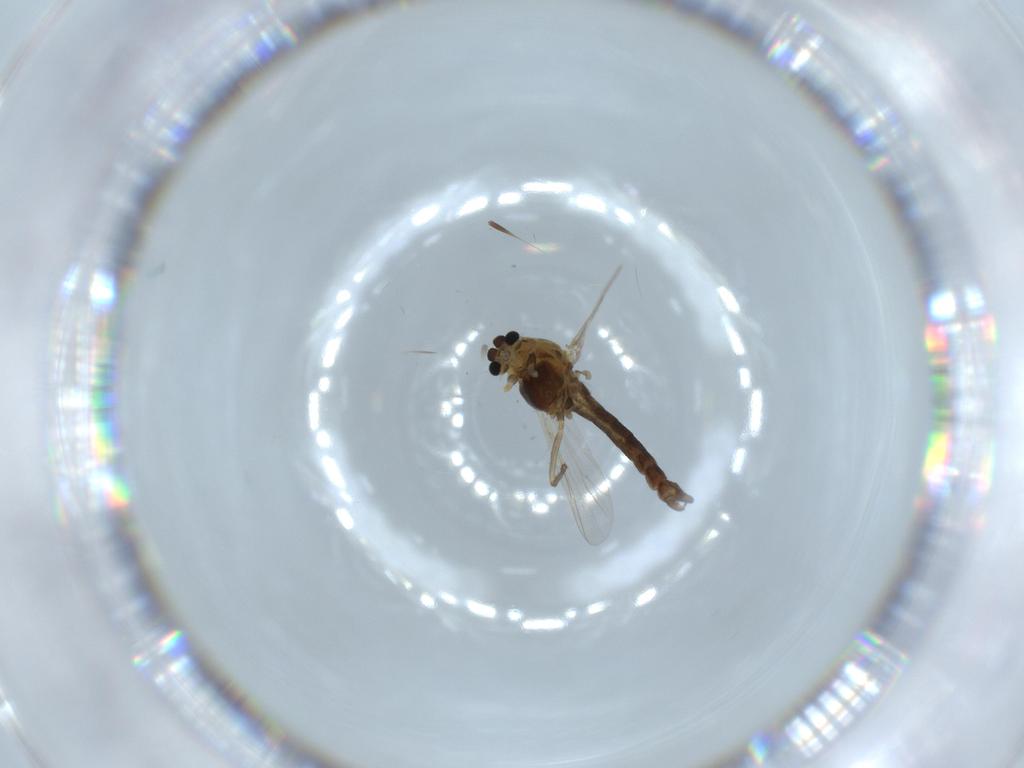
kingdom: Animalia
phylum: Arthropoda
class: Insecta
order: Diptera
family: Chironomidae
